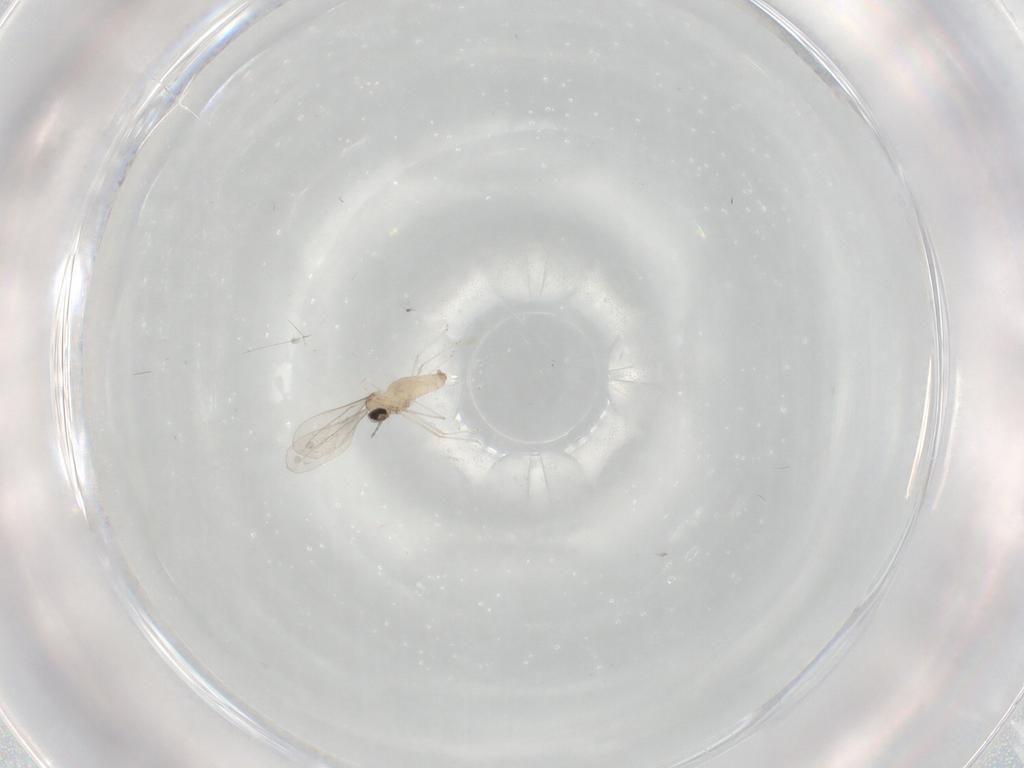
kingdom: Animalia
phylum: Arthropoda
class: Insecta
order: Diptera
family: Cecidomyiidae
